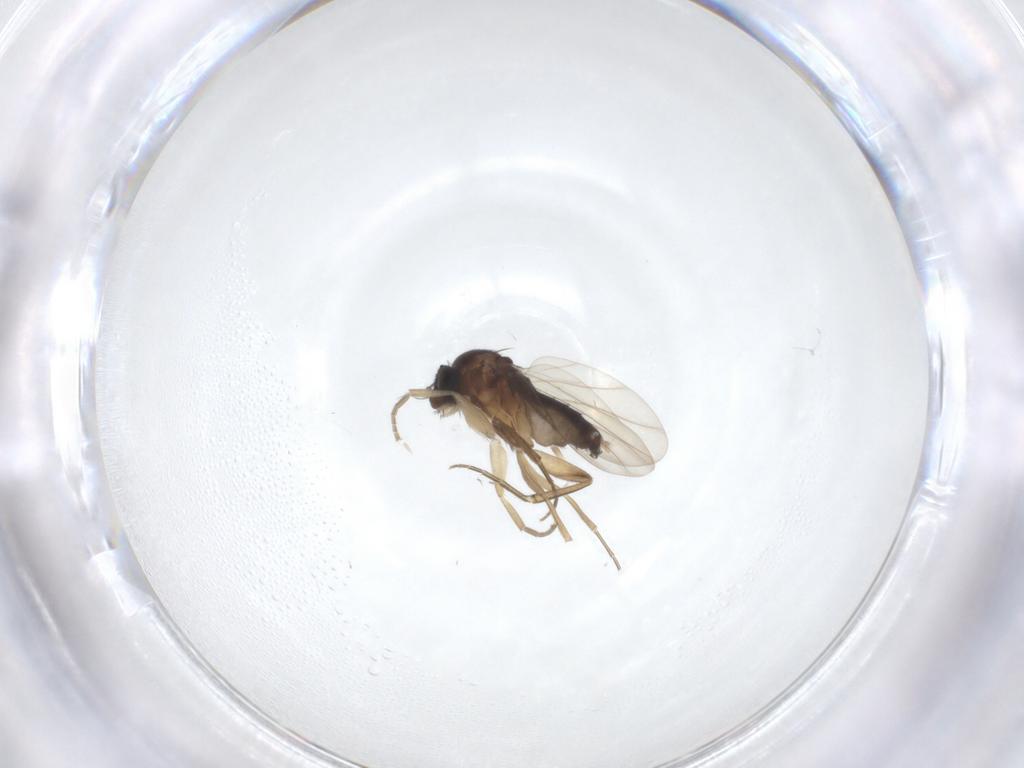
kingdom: Animalia
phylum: Arthropoda
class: Insecta
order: Diptera
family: Phoridae
